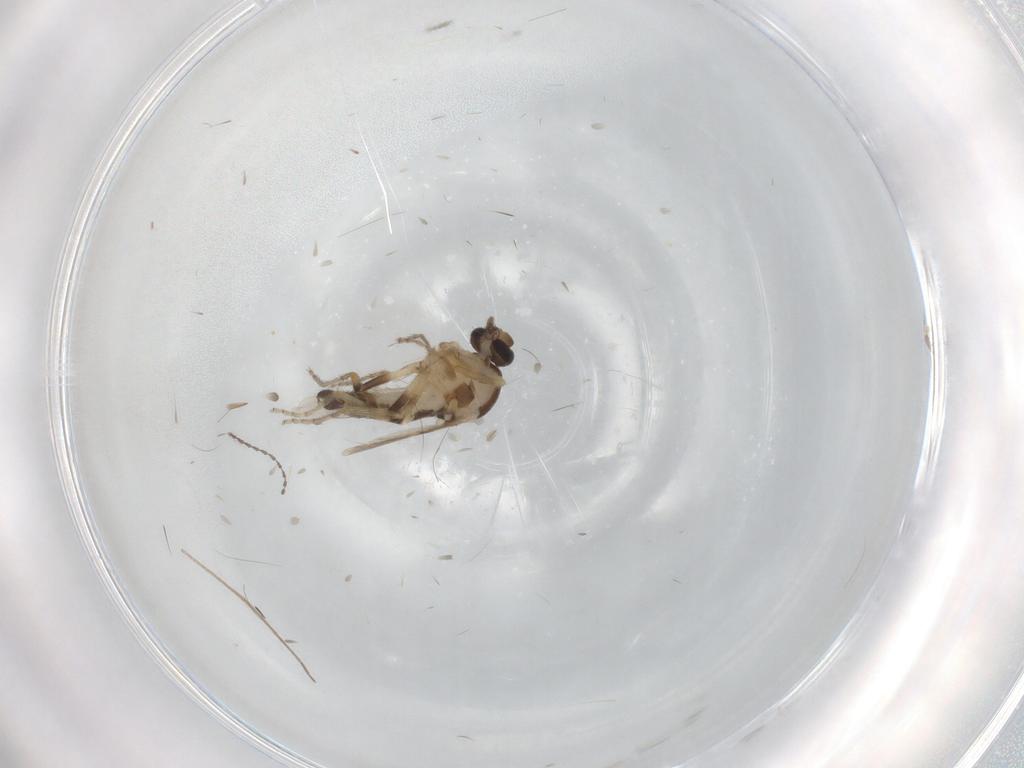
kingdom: Animalia
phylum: Arthropoda
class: Insecta
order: Diptera
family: Ceratopogonidae
